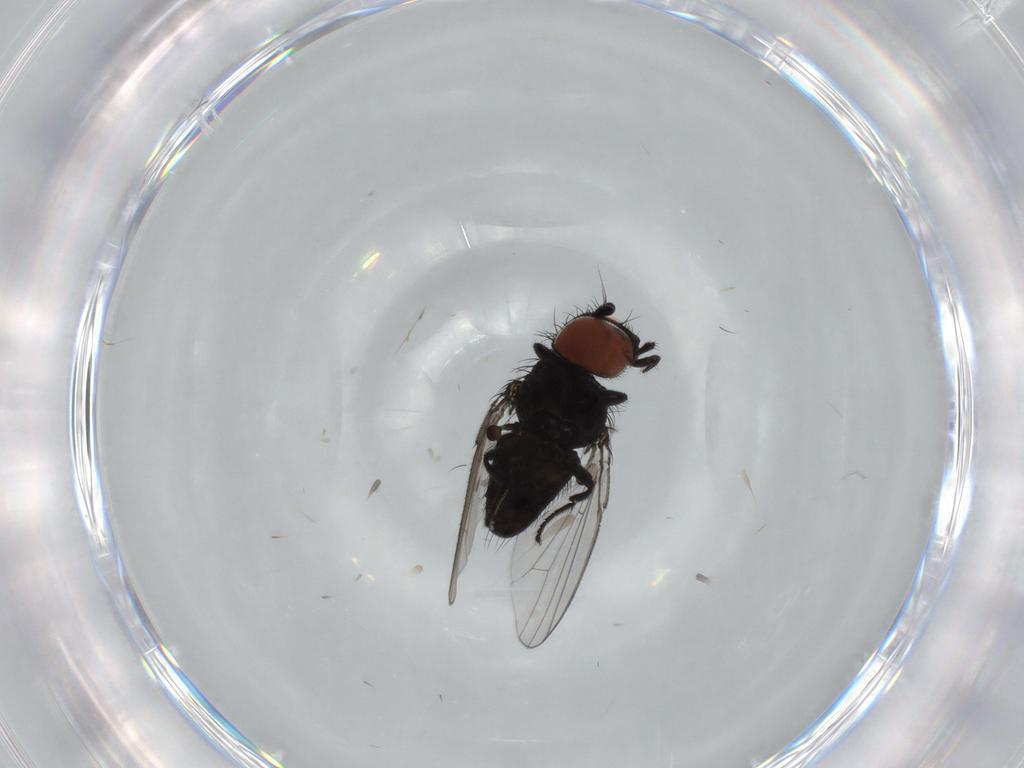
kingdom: Animalia
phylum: Arthropoda
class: Insecta
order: Diptera
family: Milichiidae
